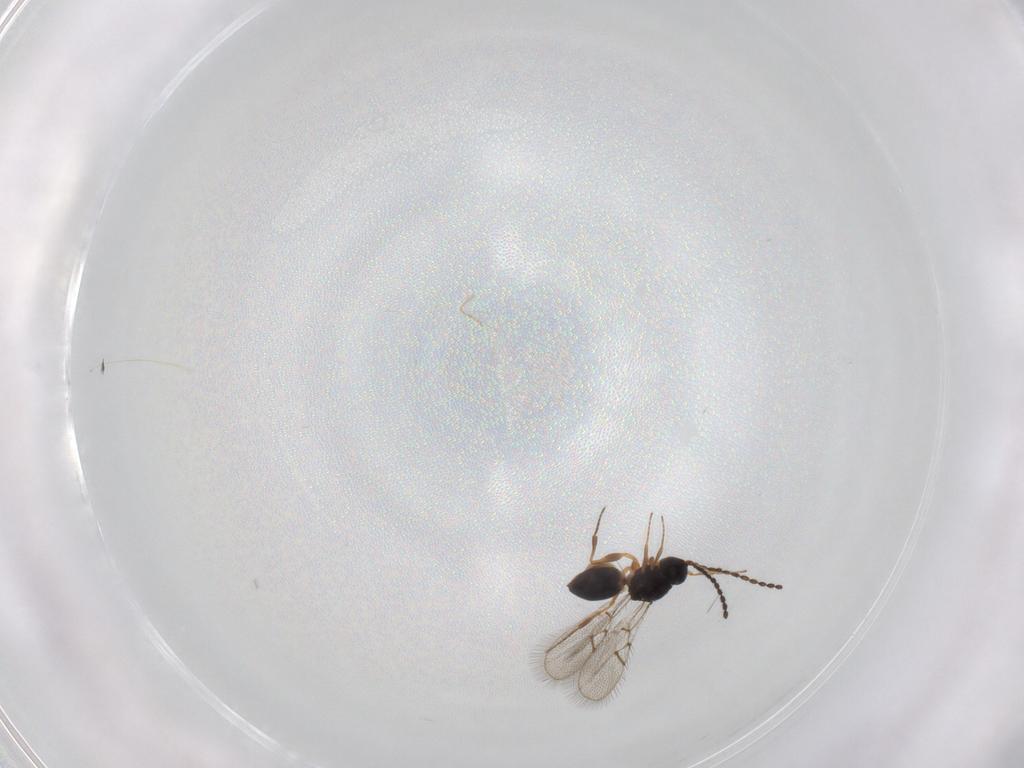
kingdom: Animalia
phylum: Arthropoda
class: Insecta
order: Hymenoptera
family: Figitidae
